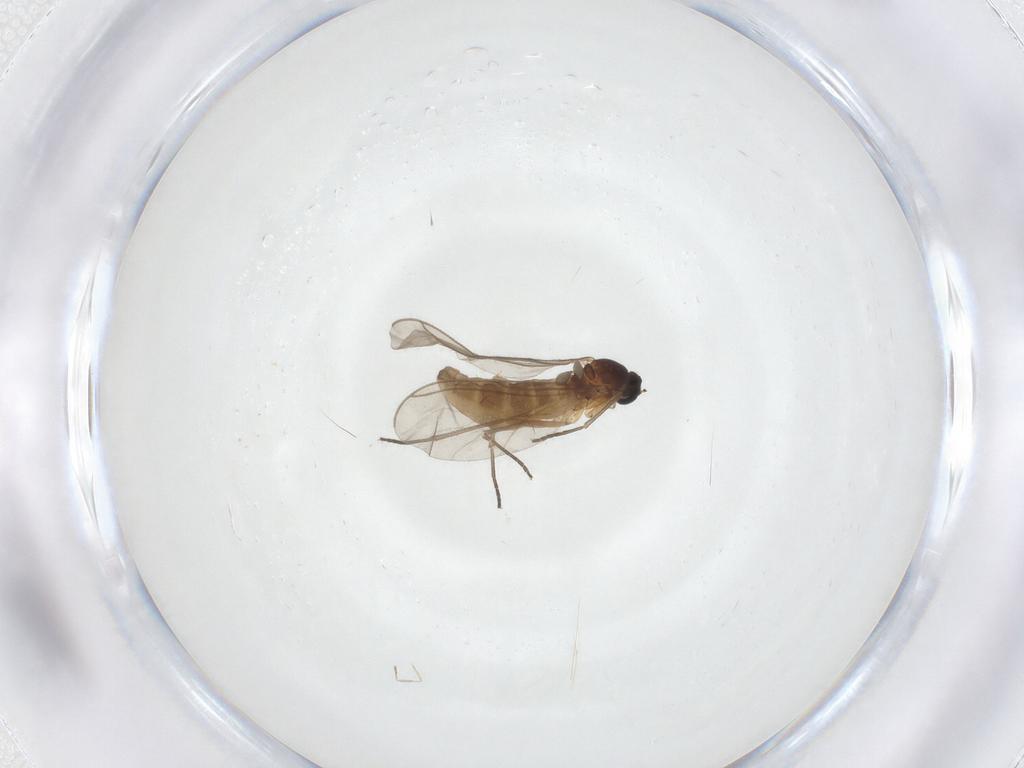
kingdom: Animalia
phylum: Arthropoda
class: Insecta
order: Diptera
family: Sciaridae
